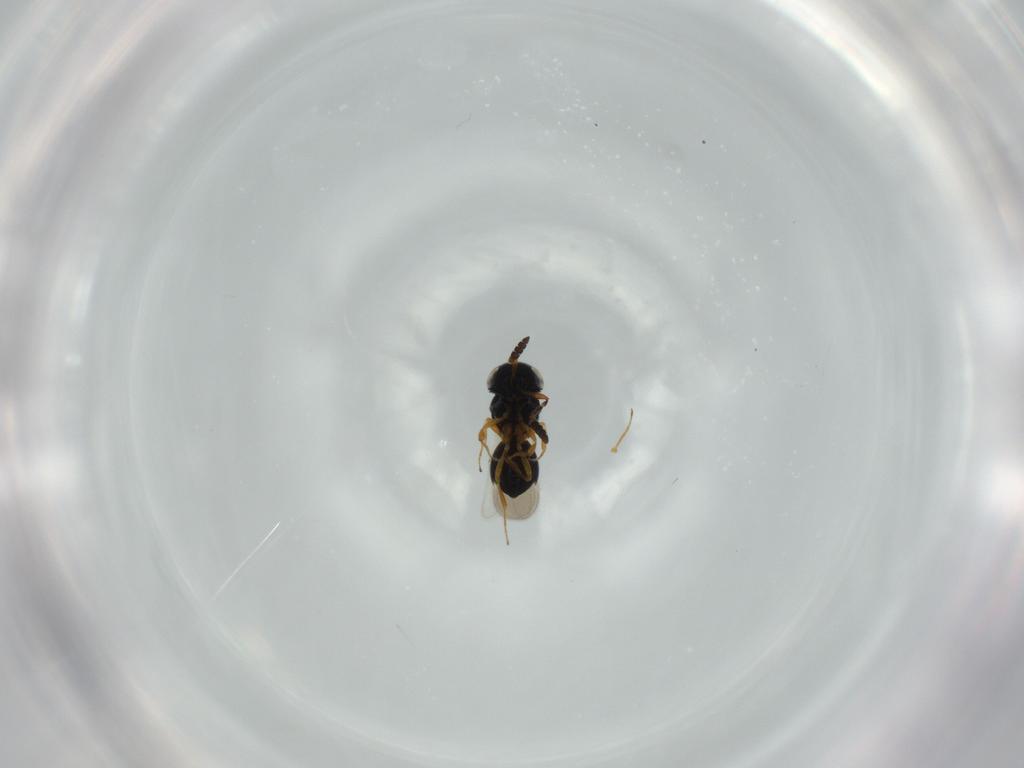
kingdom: Animalia
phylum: Arthropoda
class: Insecta
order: Hymenoptera
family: Scelionidae
